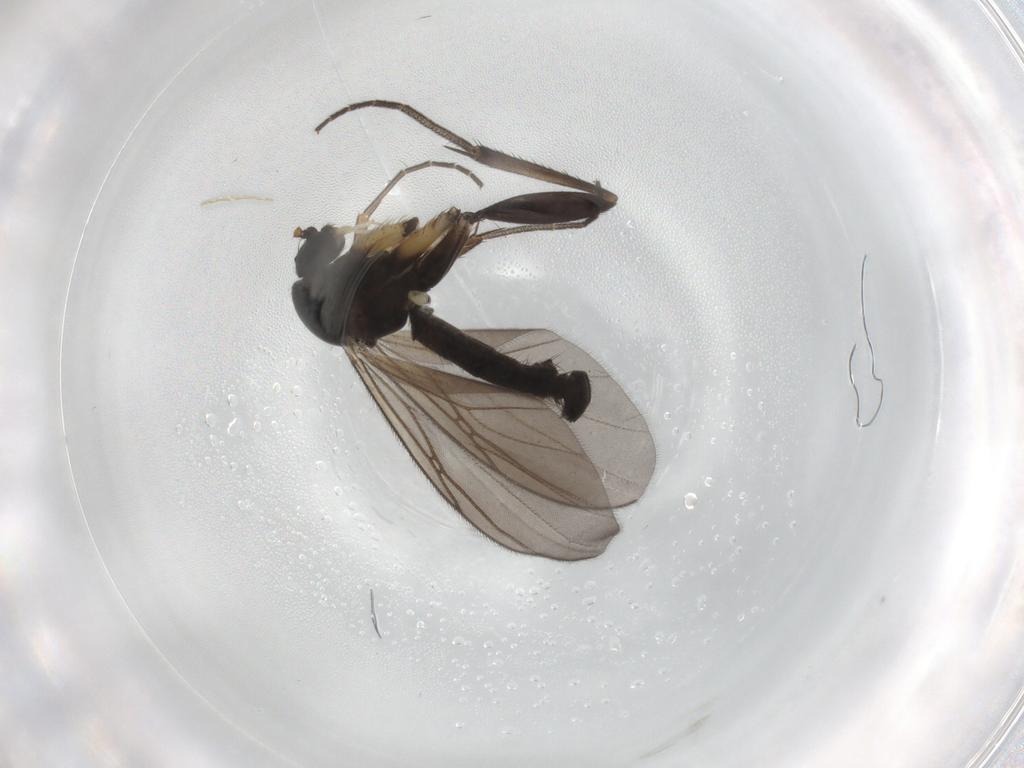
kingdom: Animalia
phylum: Arthropoda
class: Insecta
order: Diptera
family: Mycetophilidae
